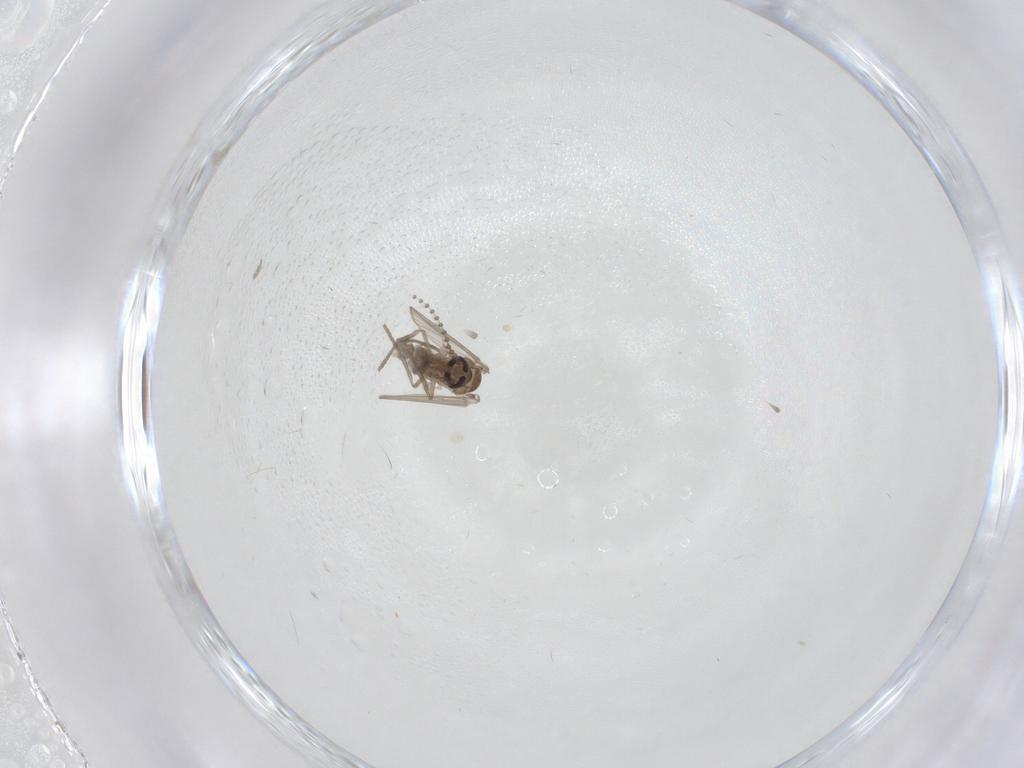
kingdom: Animalia
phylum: Arthropoda
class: Insecta
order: Diptera
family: Psychodidae
